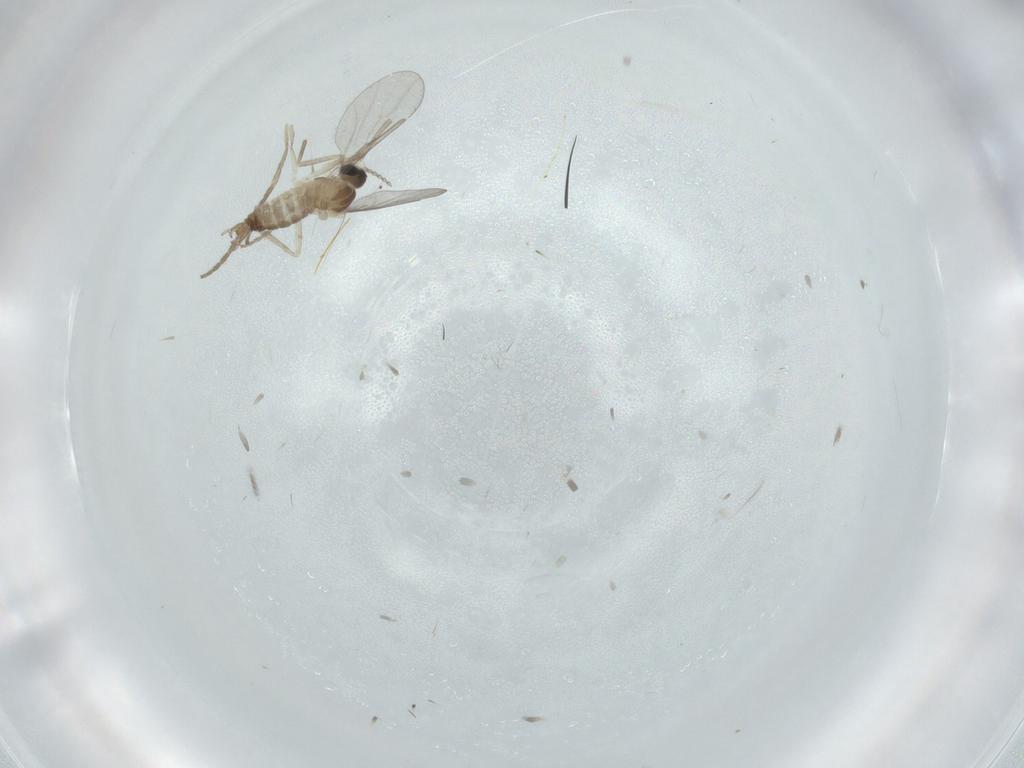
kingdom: Animalia
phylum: Arthropoda
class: Insecta
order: Diptera
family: Cecidomyiidae
